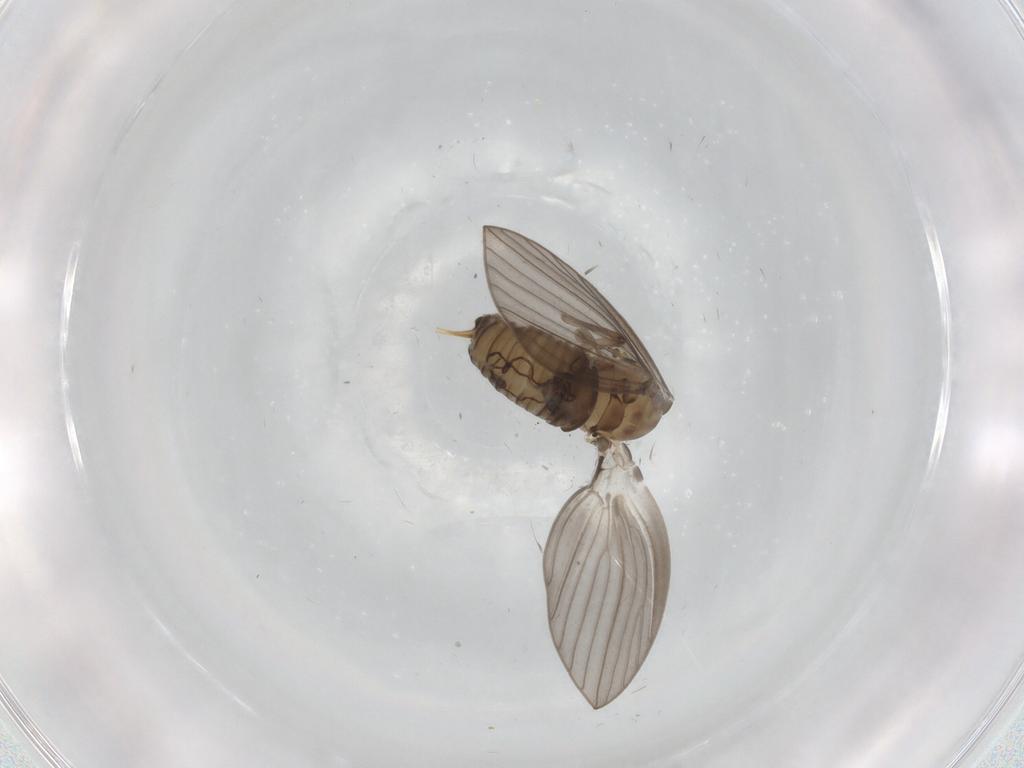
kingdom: Animalia
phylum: Arthropoda
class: Insecta
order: Diptera
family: Psychodidae
